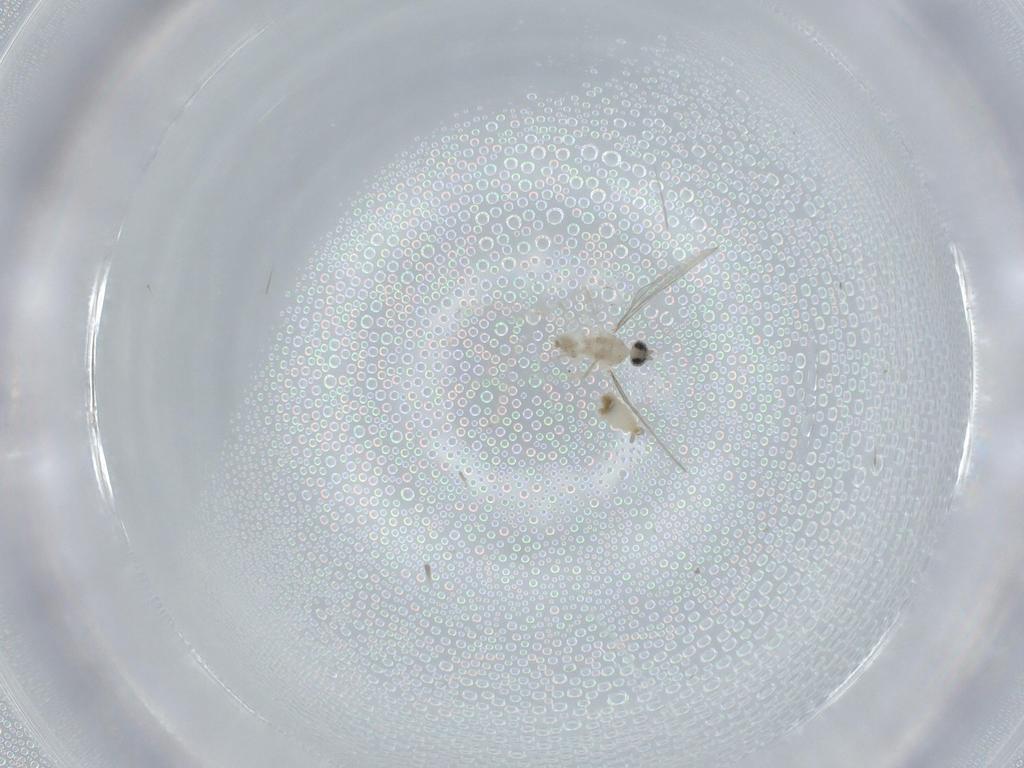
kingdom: Animalia
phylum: Arthropoda
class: Insecta
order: Diptera
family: Cecidomyiidae
